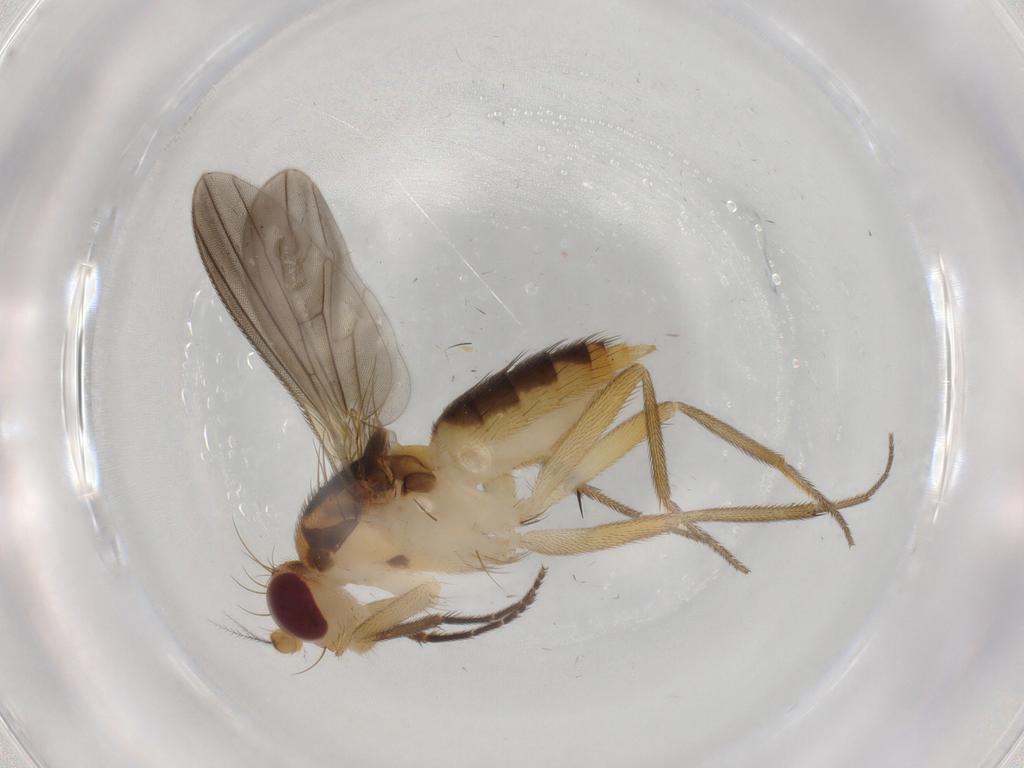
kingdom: Animalia
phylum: Arthropoda
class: Insecta
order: Diptera
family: Clusiidae
